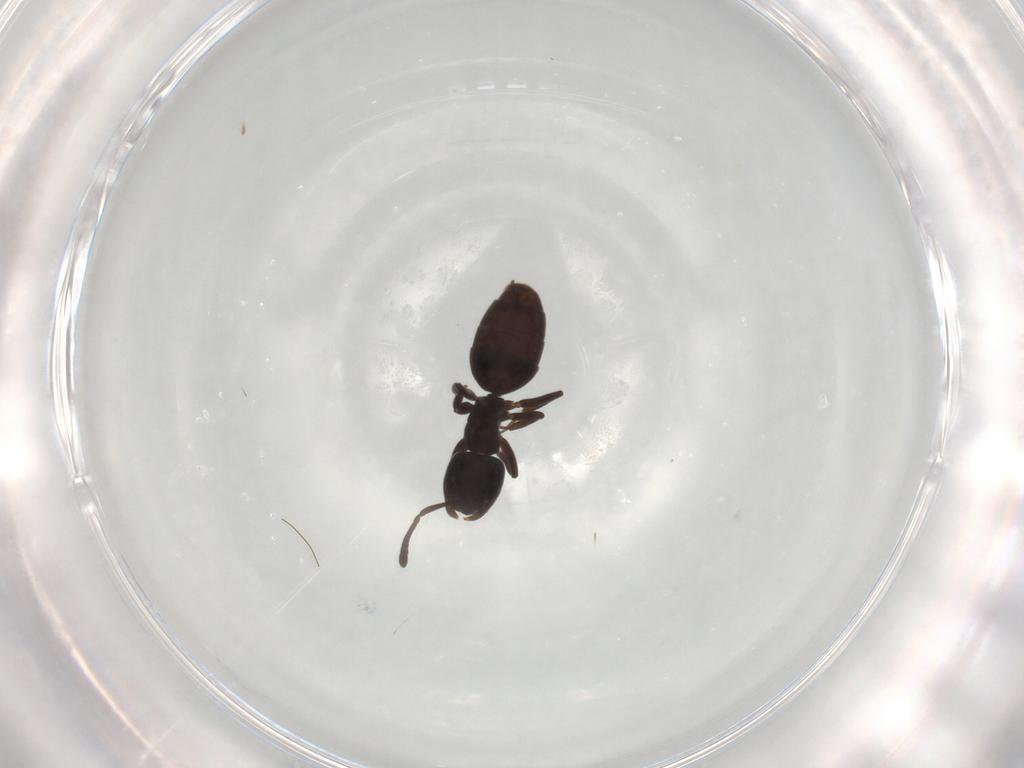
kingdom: Animalia
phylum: Arthropoda
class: Insecta
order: Hymenoptera
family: Formicidae
